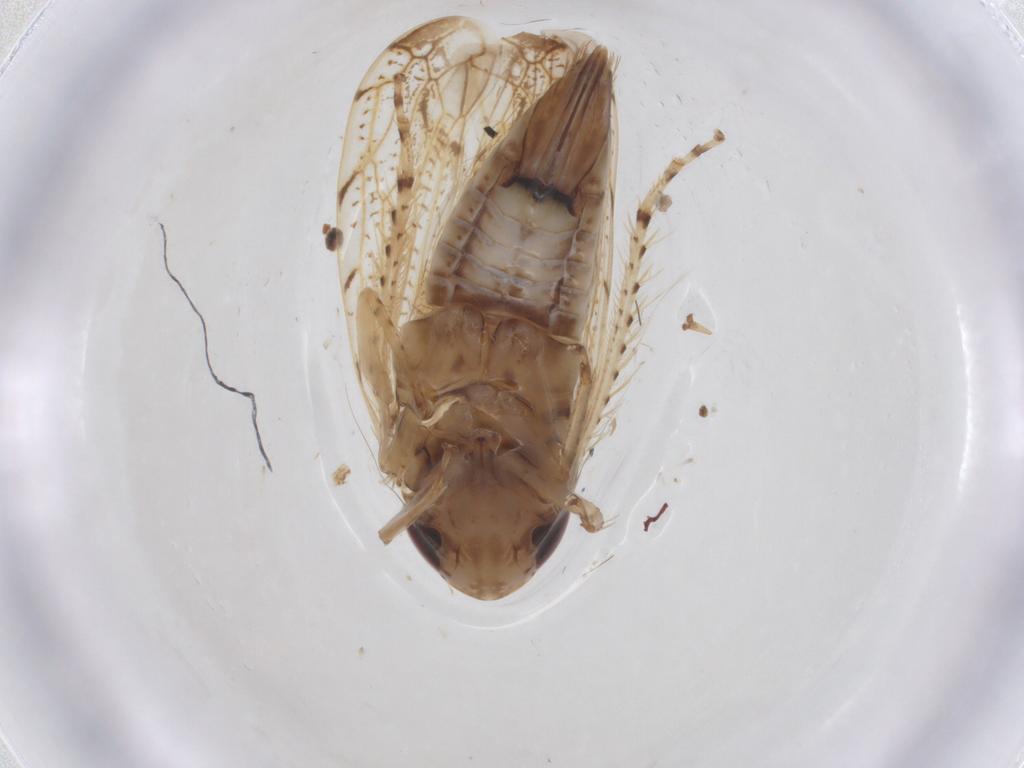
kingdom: Animalia
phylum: Arthropoda
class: Insecta
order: Hemiptera
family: Cicadellidae
